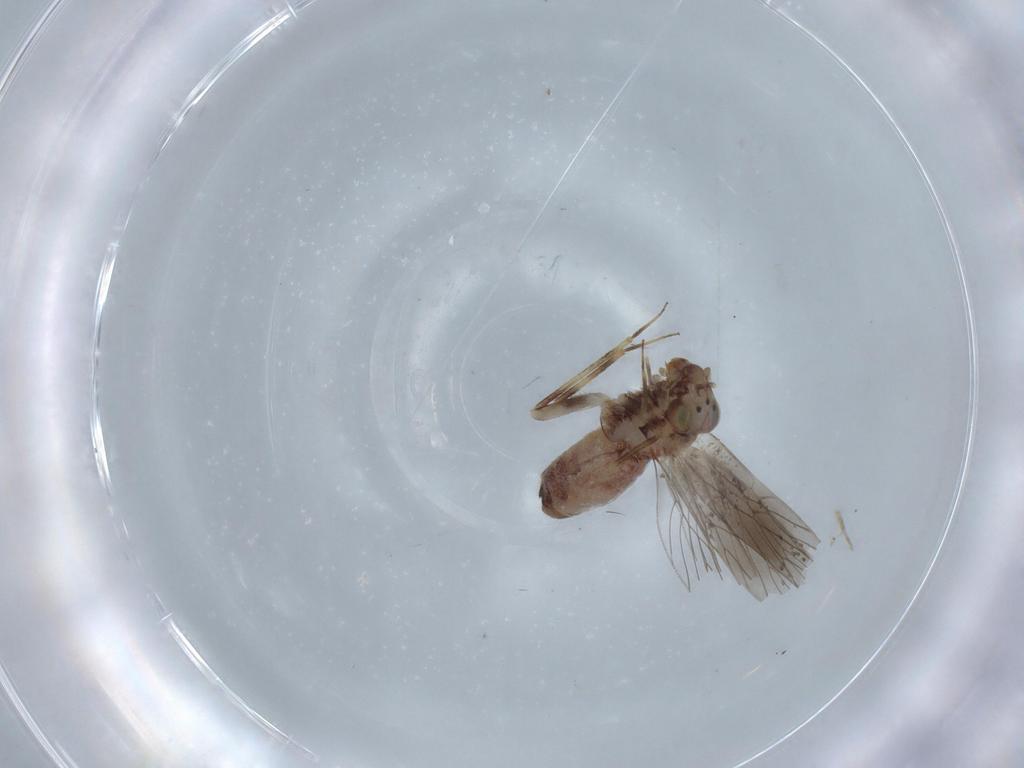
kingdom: Animalia
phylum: Arthropoda
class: Insecta
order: Psocodea
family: Lepidopsocidae
